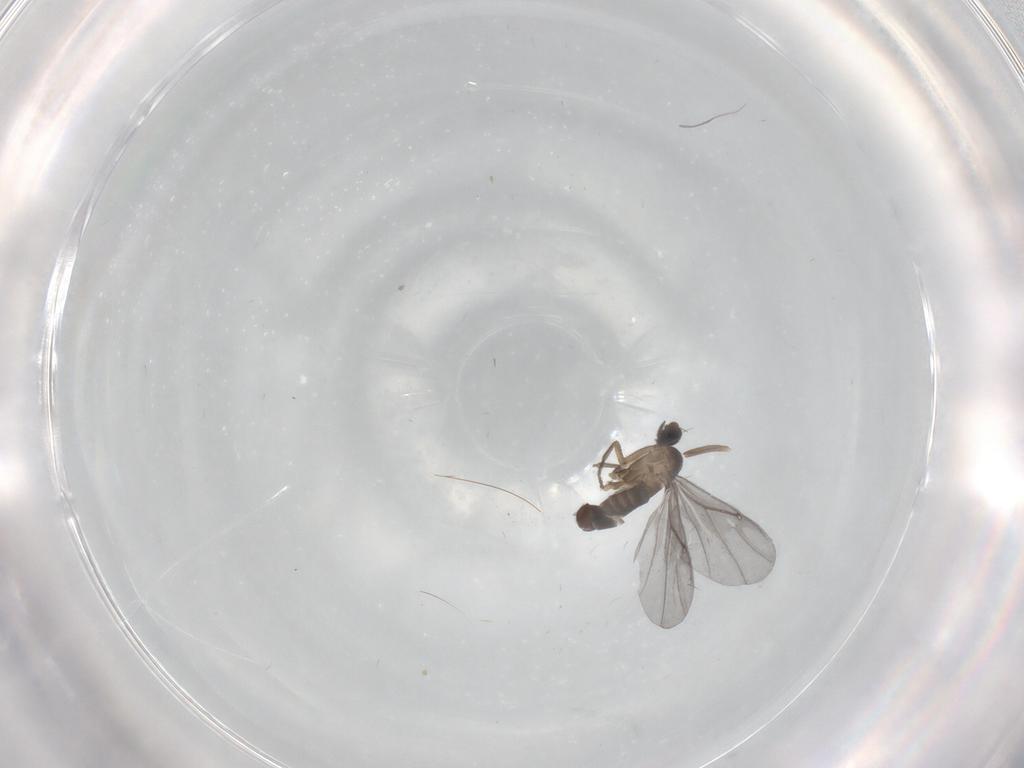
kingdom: Animalia
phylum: Arthropoda
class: Insecta
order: Diptera
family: Phoridae
